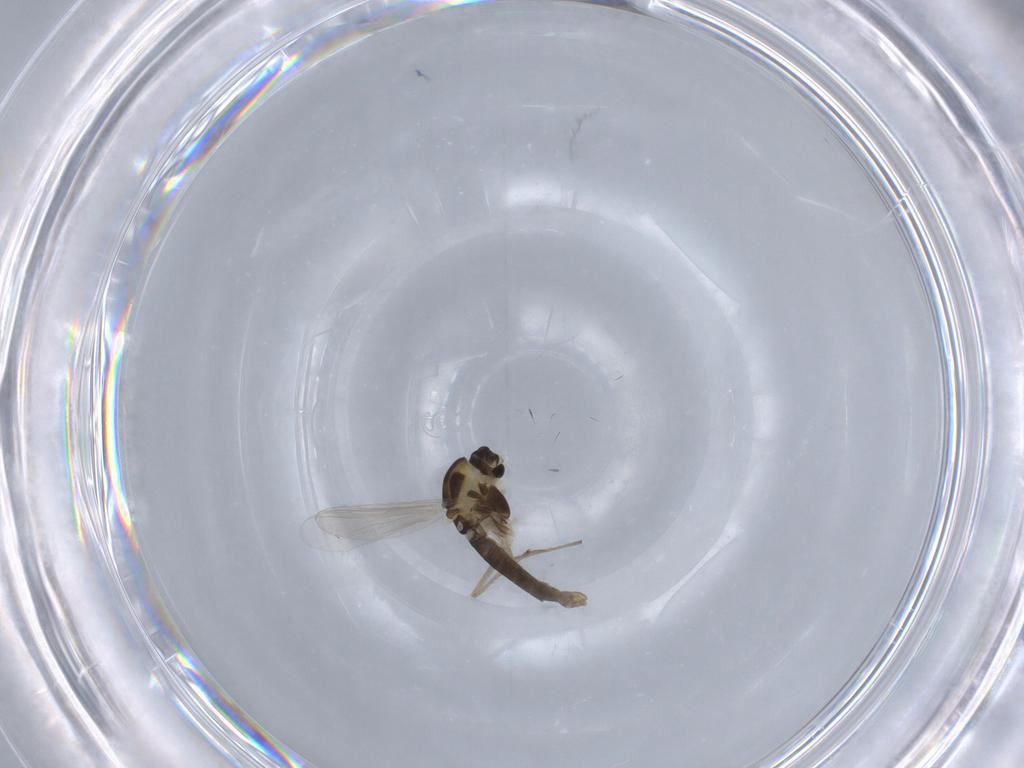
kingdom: Animalia
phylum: Arthropoda
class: Insecta
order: Diptera
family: Chironomidae
